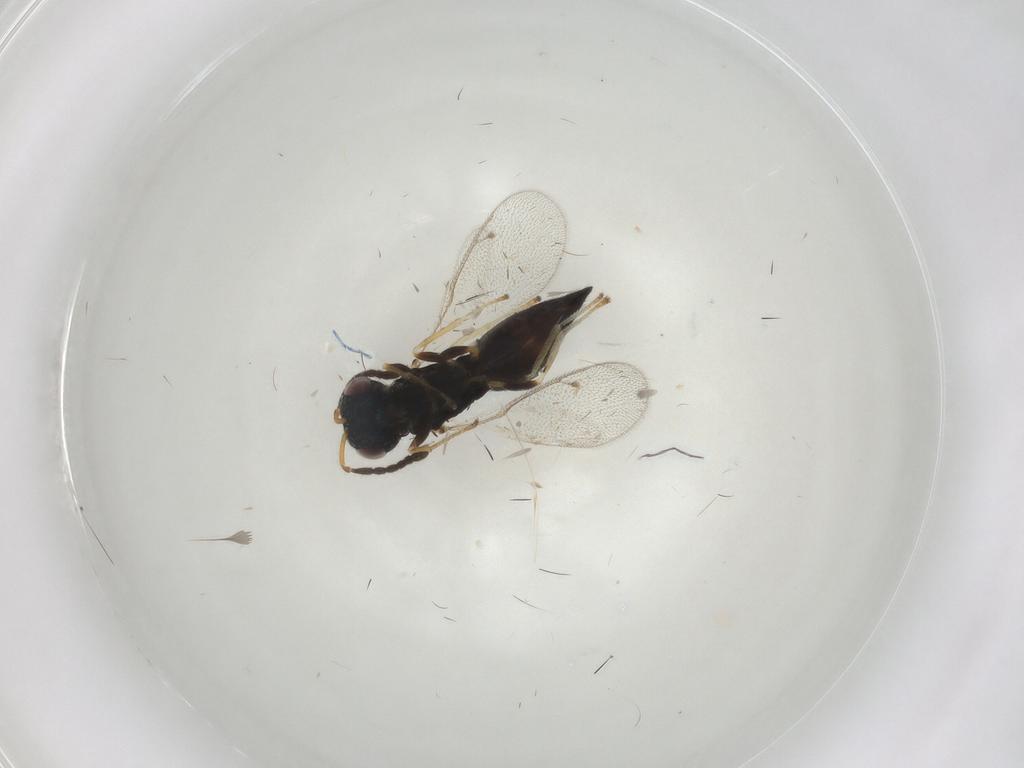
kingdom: Animalia
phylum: Arthropoda
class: Insecta
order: Hymenoptera
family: Pteromalidae
